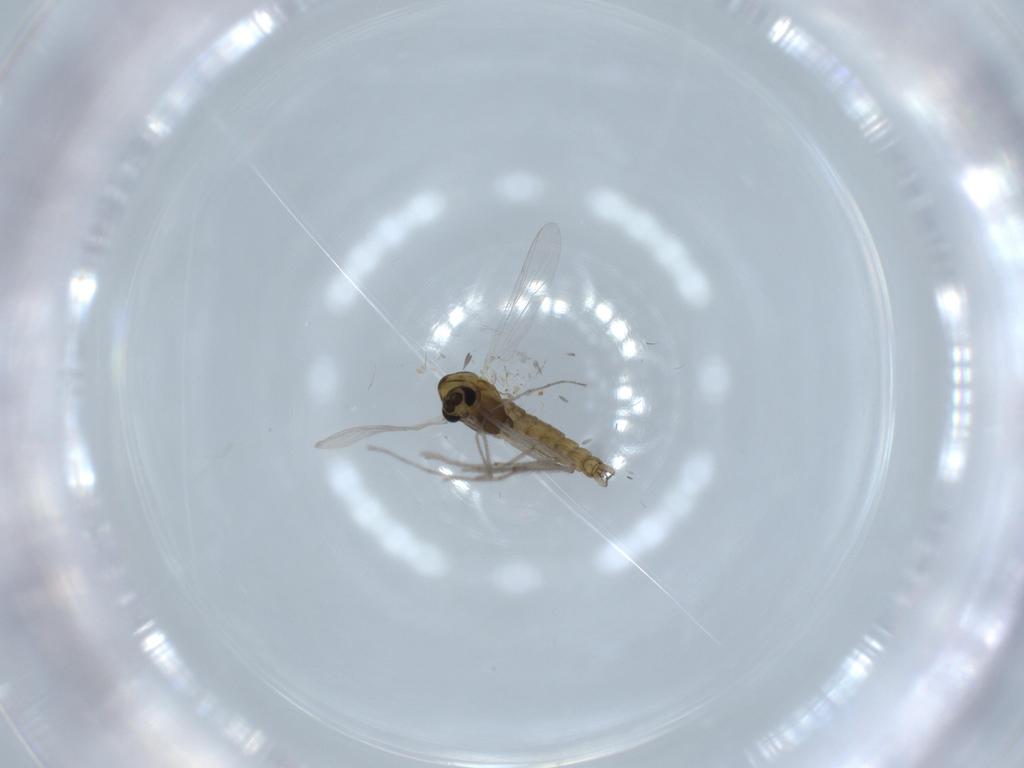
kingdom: Animalia
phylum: Arthropoda
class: Insecta
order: Diptera
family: Chironomidae
